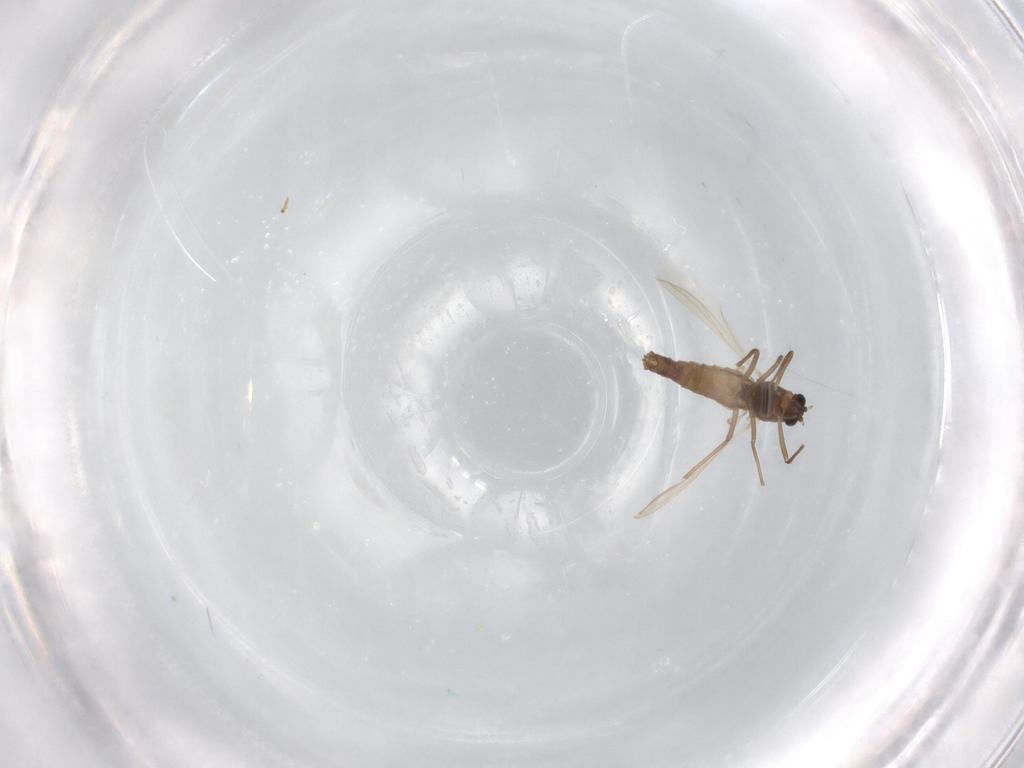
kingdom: Animalia
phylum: Arthropoda
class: Insecta
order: Diptera
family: Chironomidae
